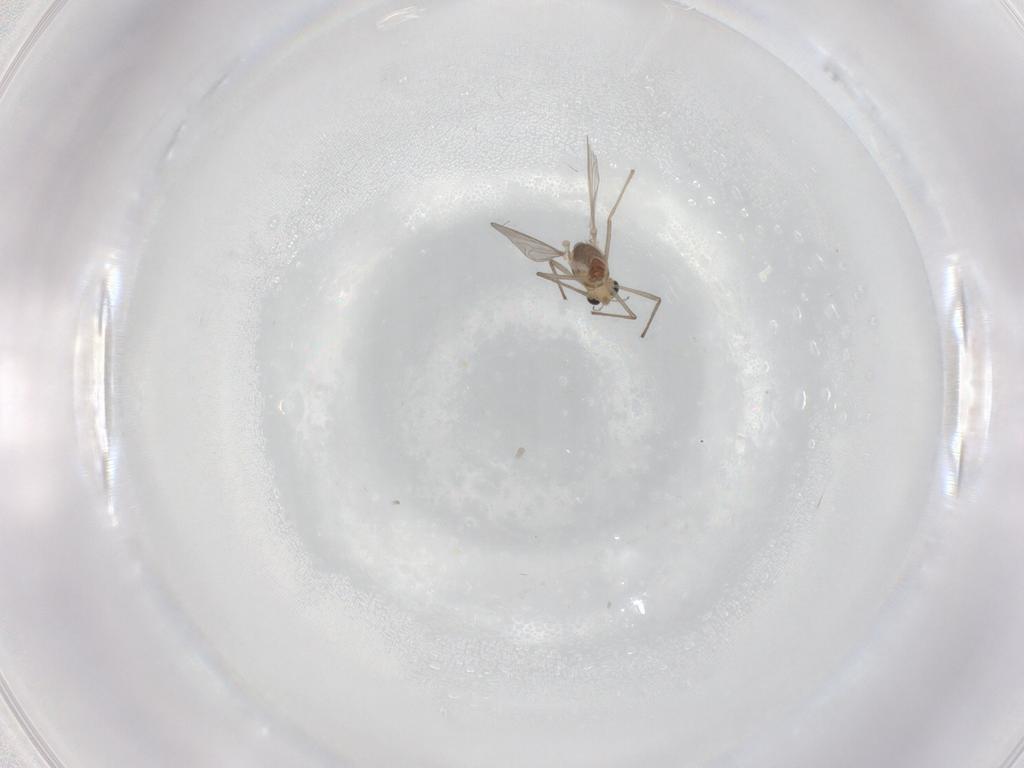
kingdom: Animalia
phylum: Arthropoda
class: Insecta
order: Diptera
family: Chironomidae
